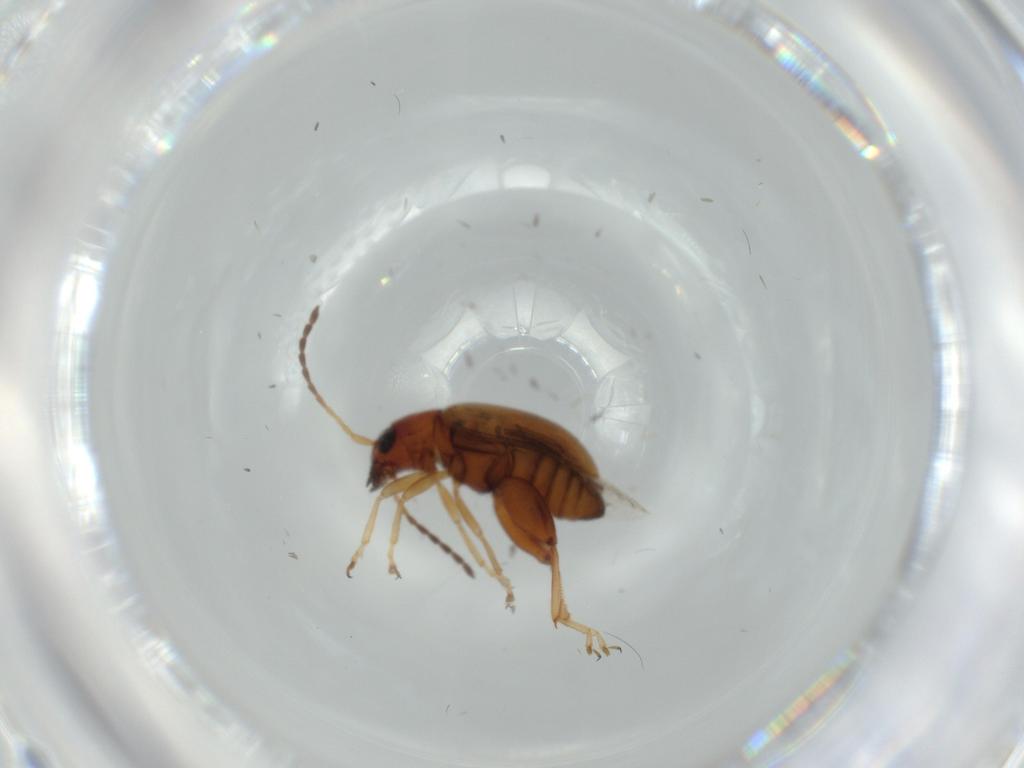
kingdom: Animalia
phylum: Arthropoda
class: Insecta
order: Coleoptera
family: Chrysomelidae
